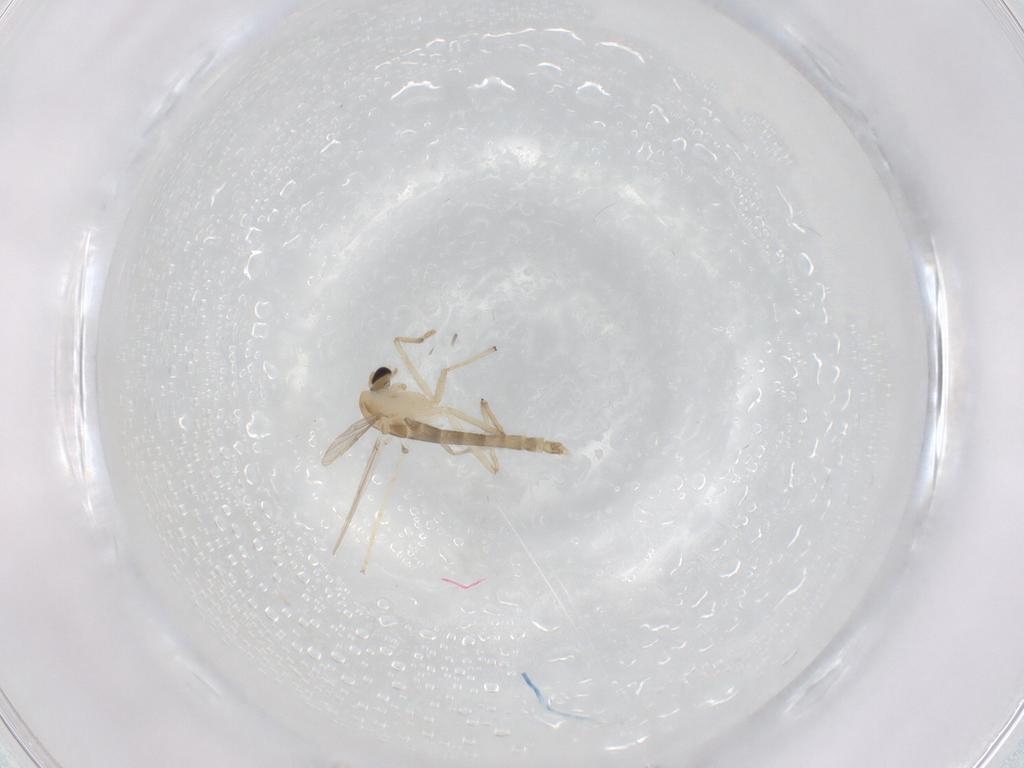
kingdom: Animalia
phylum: Arthropoda
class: Insecta
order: Diptera
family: Chironomidae
